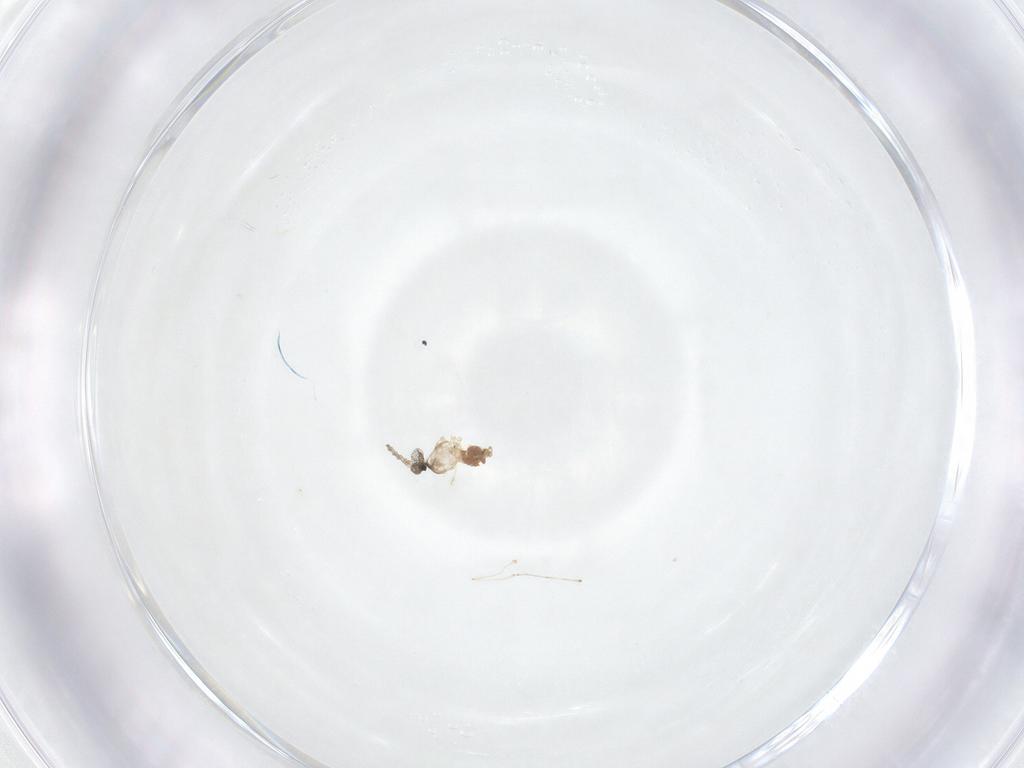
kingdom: Animalia
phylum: Arthropoda
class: Insecta
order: Diptera
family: Cecidomyiidae
